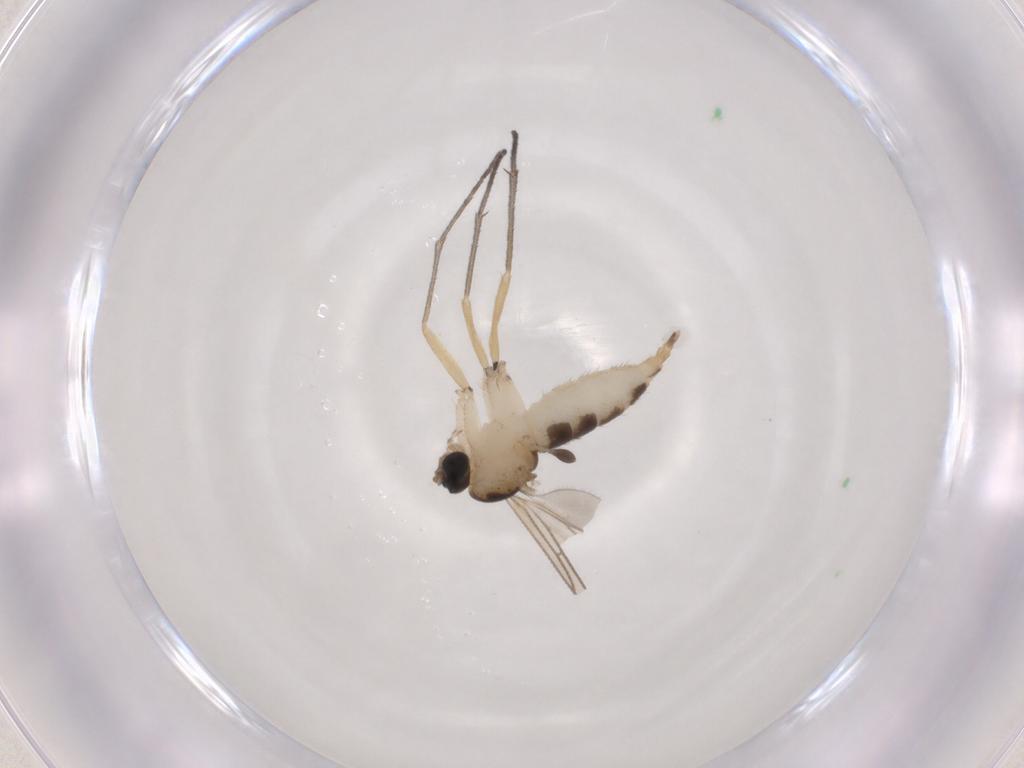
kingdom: Animalia
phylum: Arthropoda
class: Insecta
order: Diptera
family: Sciaridae
